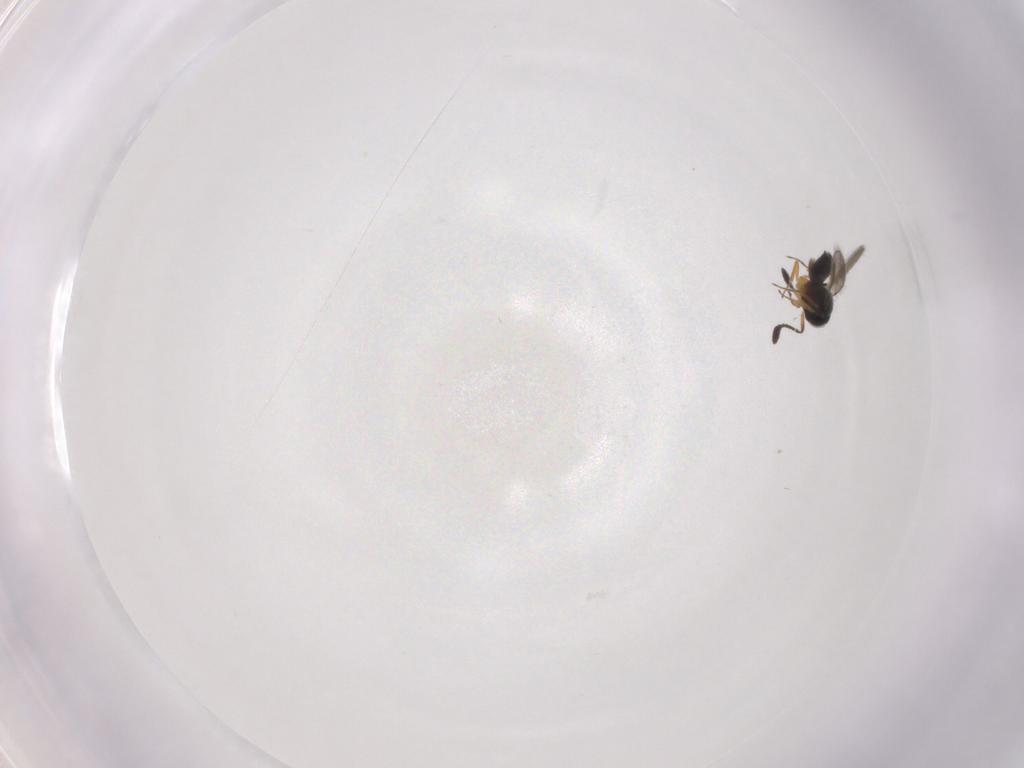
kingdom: Animalia
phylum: Arthropoda
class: Insecta
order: Hymenoptera
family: Scelionidae
